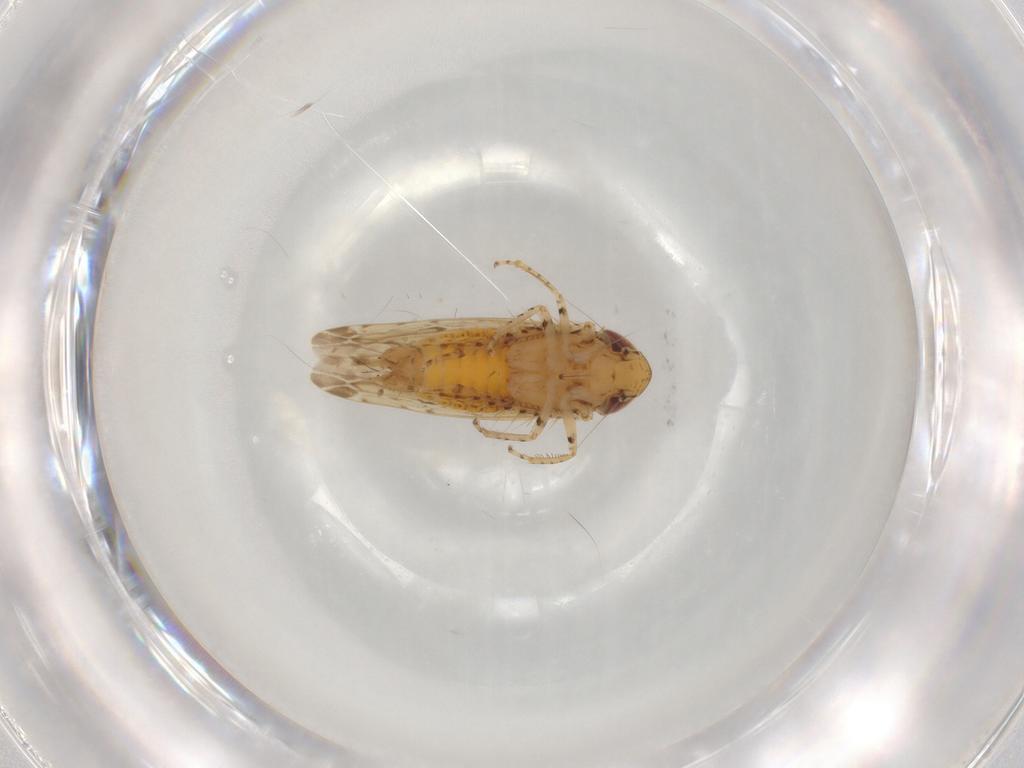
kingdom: Animalia
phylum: Arthropoda
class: Insecta
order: Hemiptera
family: Cicadellidae
